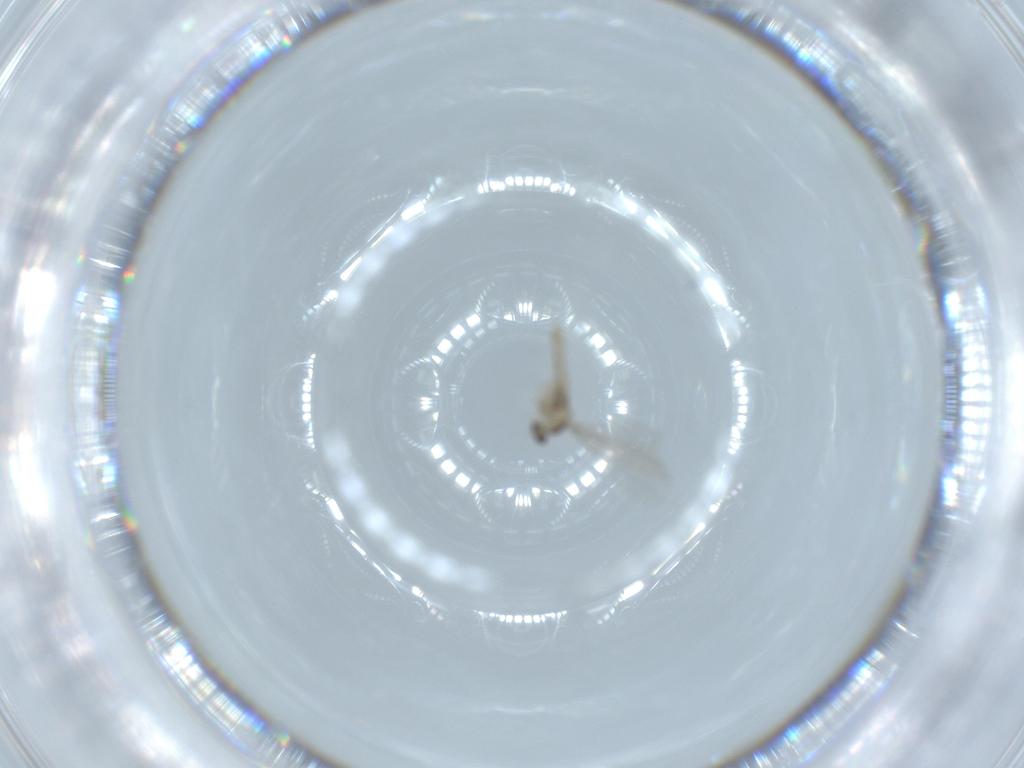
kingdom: Animalia
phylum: Arthropoda
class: Insecta
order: Diptera
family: Cecidomyiidae
